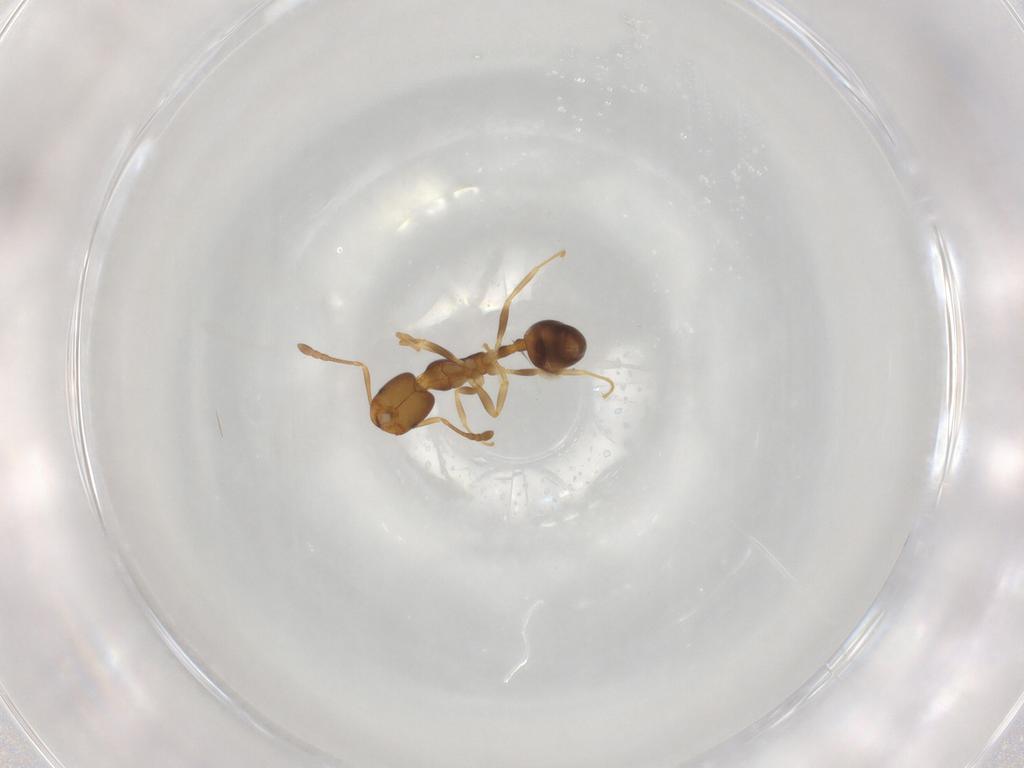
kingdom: Animalia
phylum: Arthropoda
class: Insecta
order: Hymenoptera
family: Formicidae
